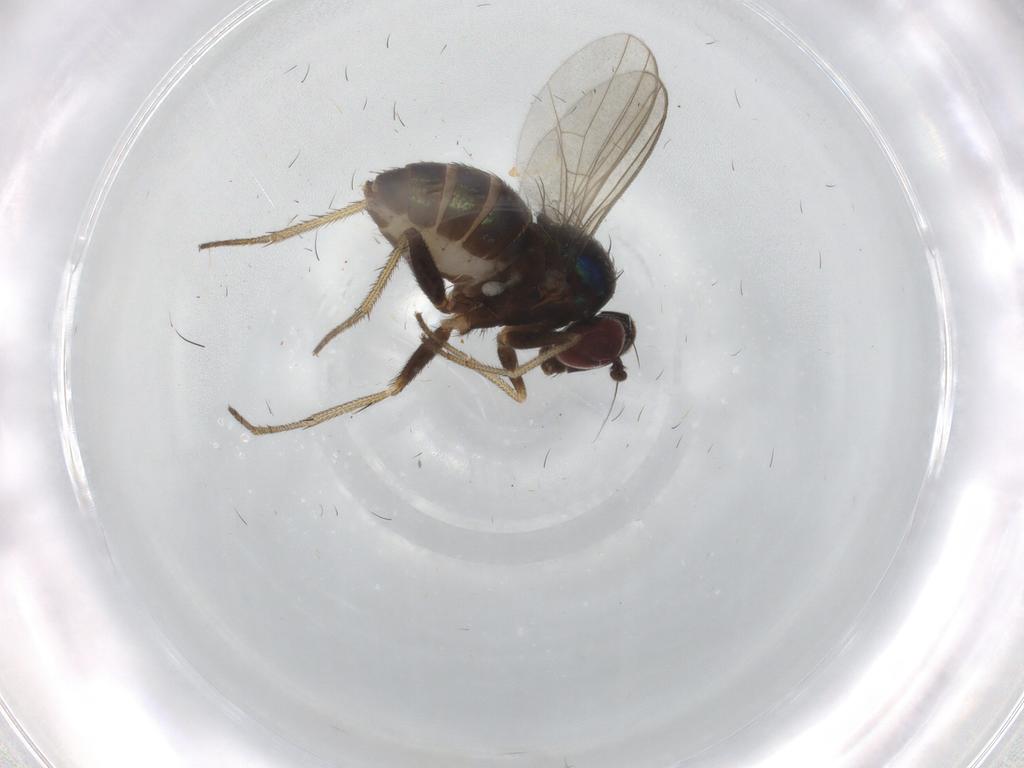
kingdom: Animalia
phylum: Arthropoda
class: Insecta
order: Diptera
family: Dolichopodidae
